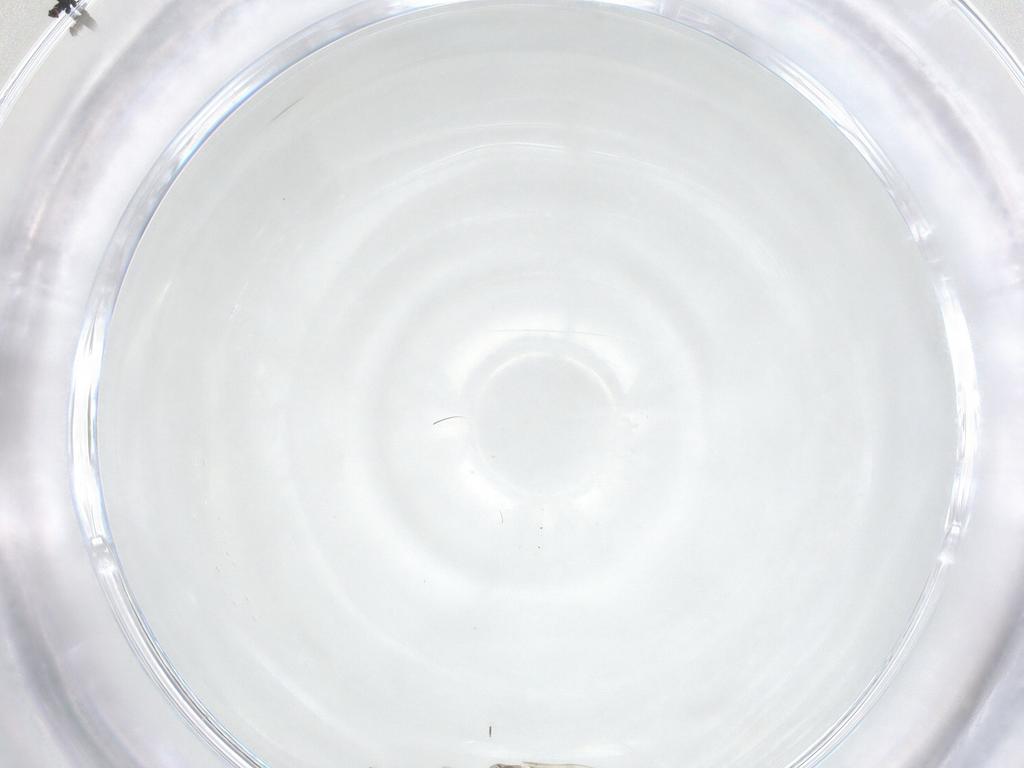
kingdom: Animalia
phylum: Arthropoda
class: Insecta
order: Diptera
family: Cecidomyiidae
